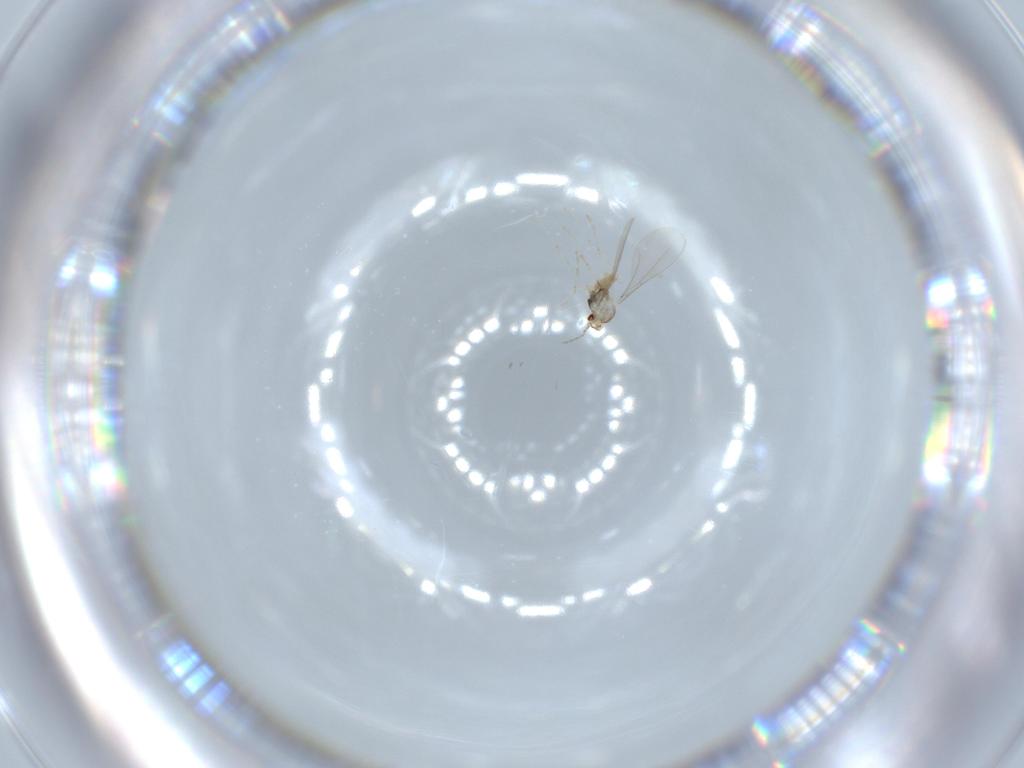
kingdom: Animalia
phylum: Arthropoda
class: Insecta
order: Diptera
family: Cecidomyiidae
